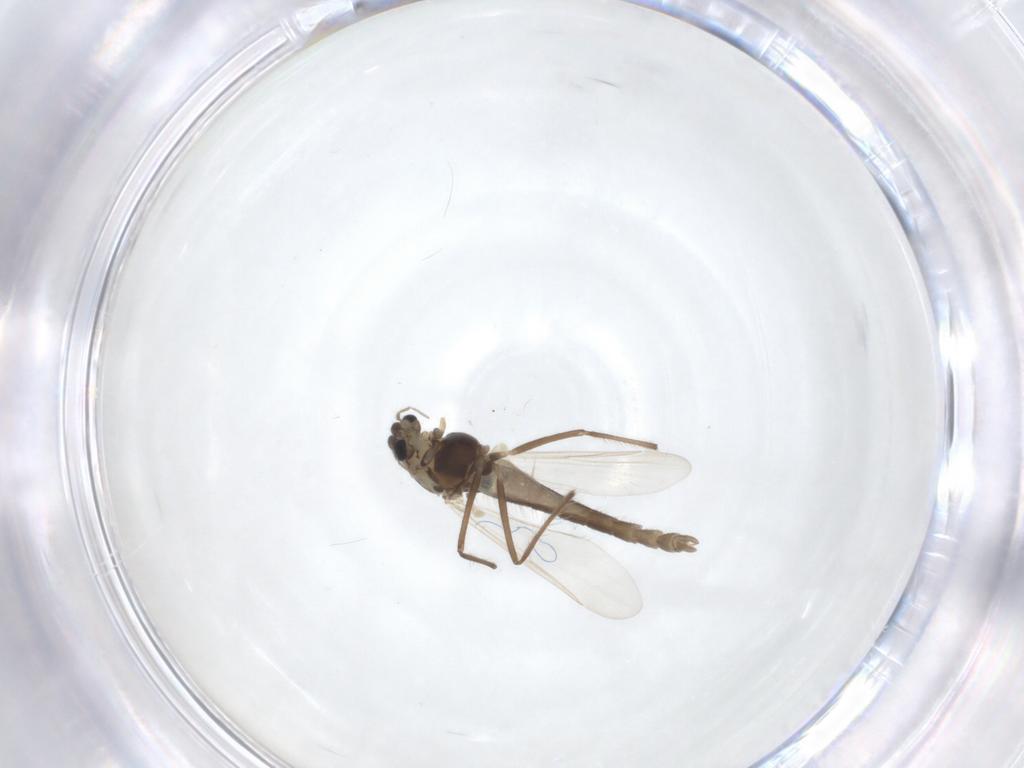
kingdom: Animalia
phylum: Arthropoda
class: Insecta
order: Diptera
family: Chironomidae
